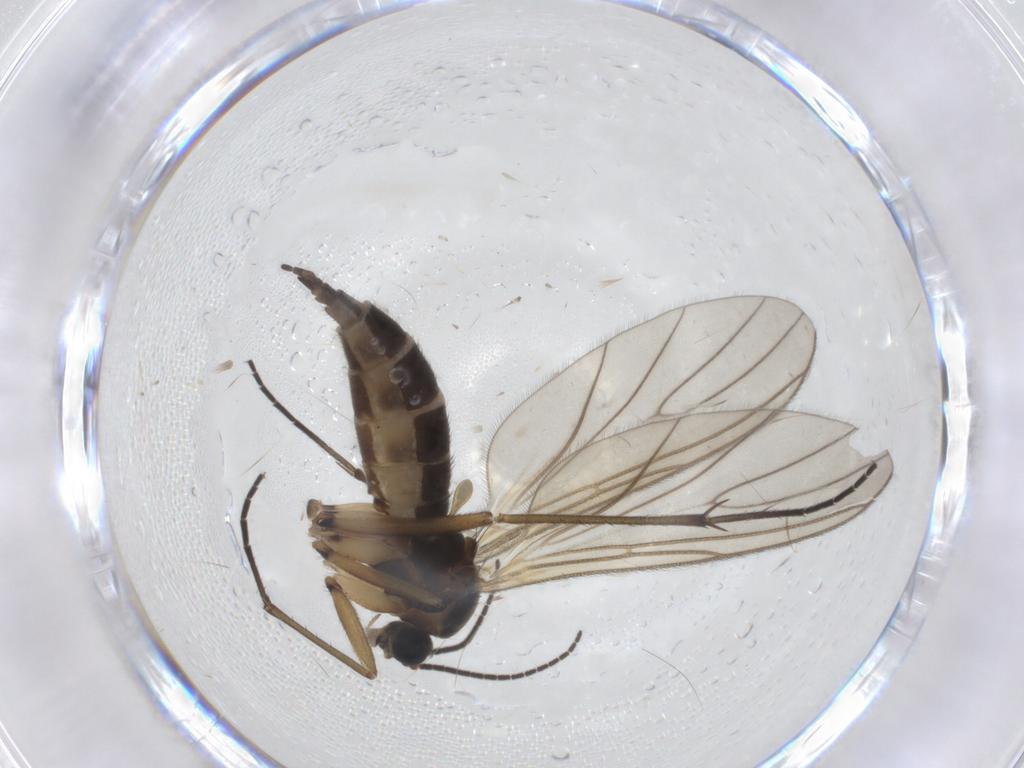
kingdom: Animalia
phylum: Arthropoda
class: Insecta
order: Diptera
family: Sciaridae
